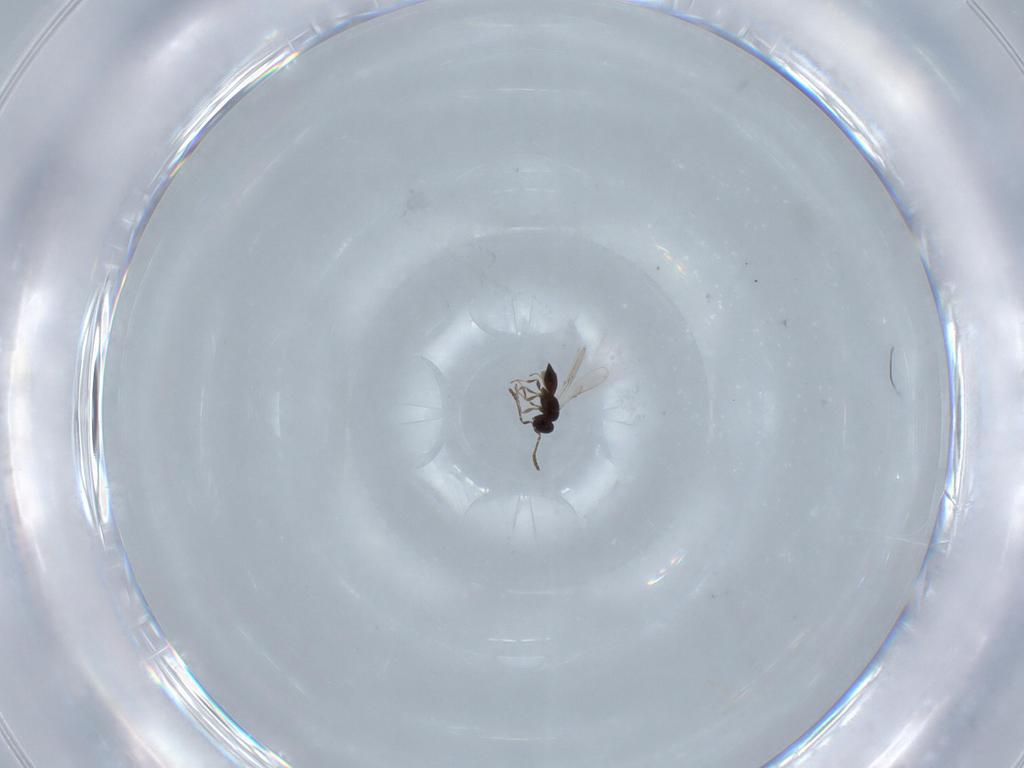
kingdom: Animalia
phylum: Arthropoda
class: Insecta
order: Hymenoptera
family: Scelionidae
